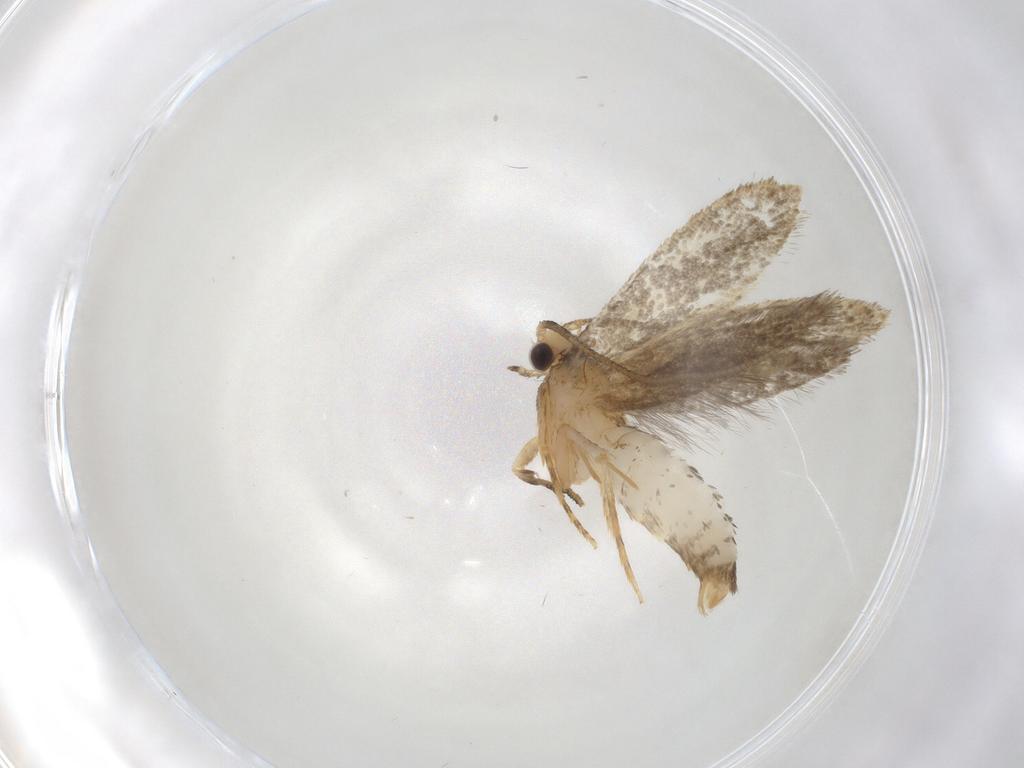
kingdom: Animalia
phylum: Arthropoda
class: Insecta
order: Lepidoptera
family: Tineidae
